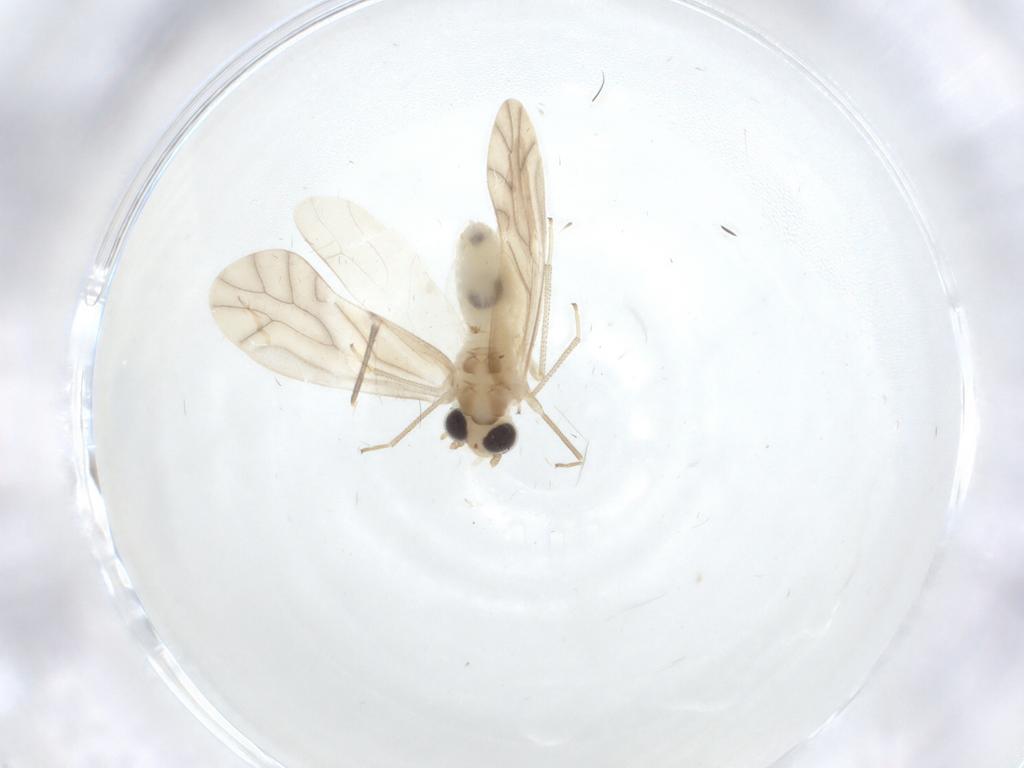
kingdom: Animalia
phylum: Arthropoda
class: Insecta
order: Psocodea
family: Caeciliusidae
